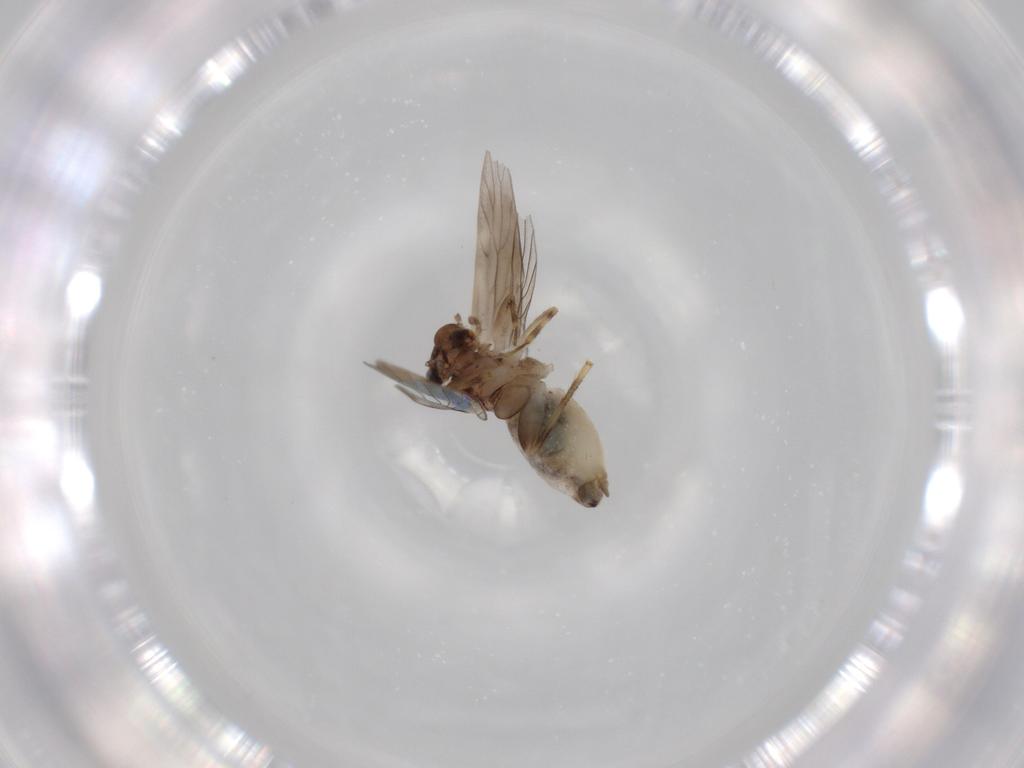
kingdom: Animalia
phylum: Arthropoda
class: Insecta
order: Psocodea
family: Lepidopsocidae
